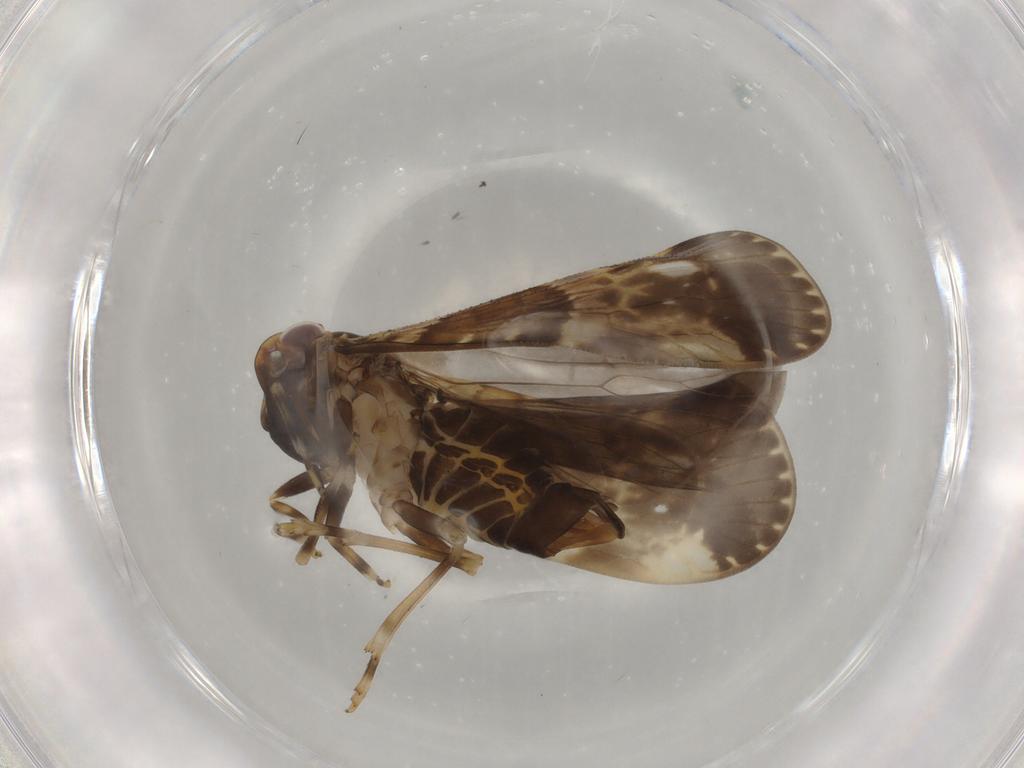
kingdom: Animalia
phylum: Arthropoda
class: Insecta
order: Hemiptera
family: Cixiidae
